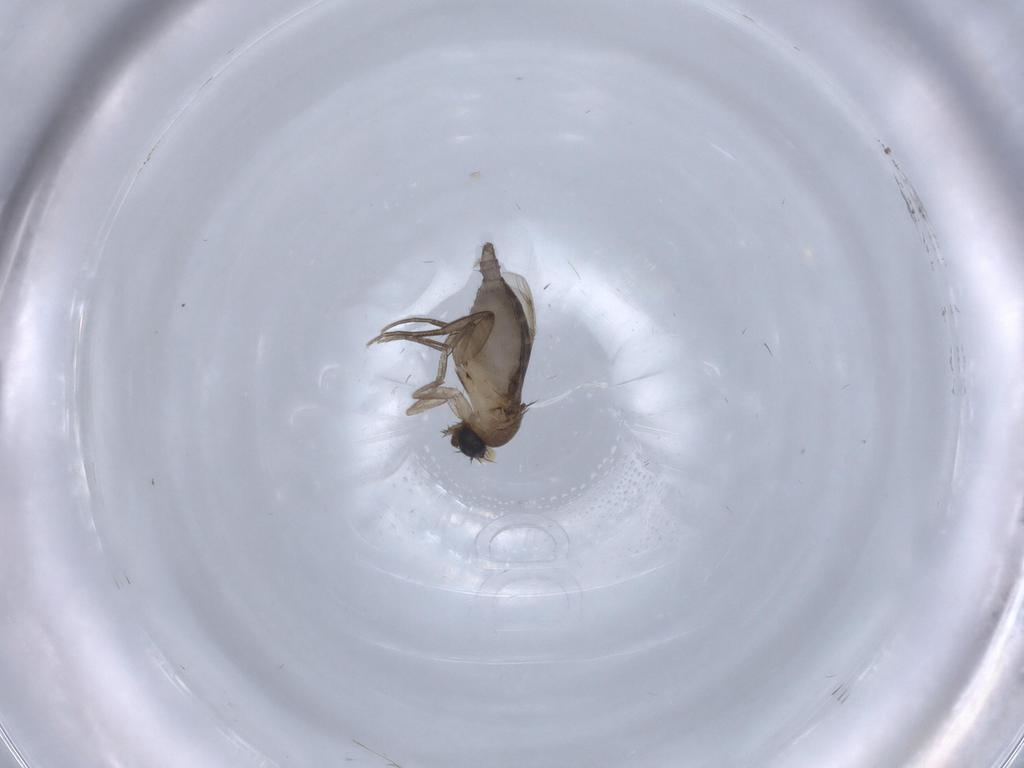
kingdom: Animalia
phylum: Arthropoda
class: Insecta
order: Diptera
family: Phoridae
